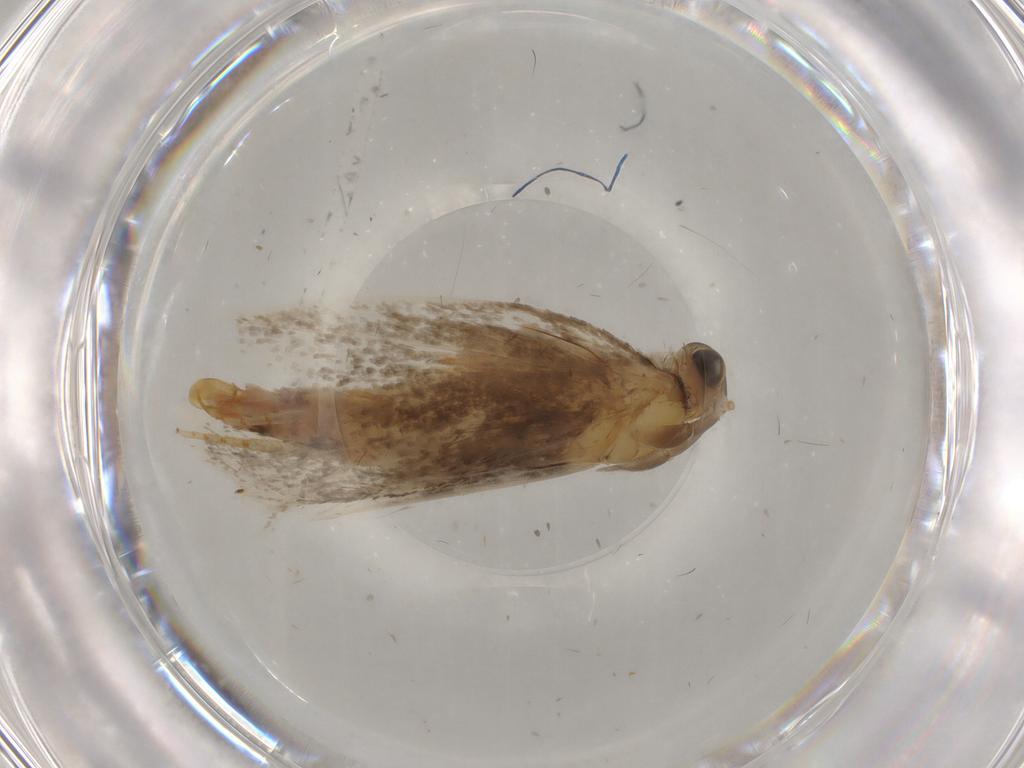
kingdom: Animalia
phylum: Arthropoda
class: Insecta
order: Lepidoptera
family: Tineidae
